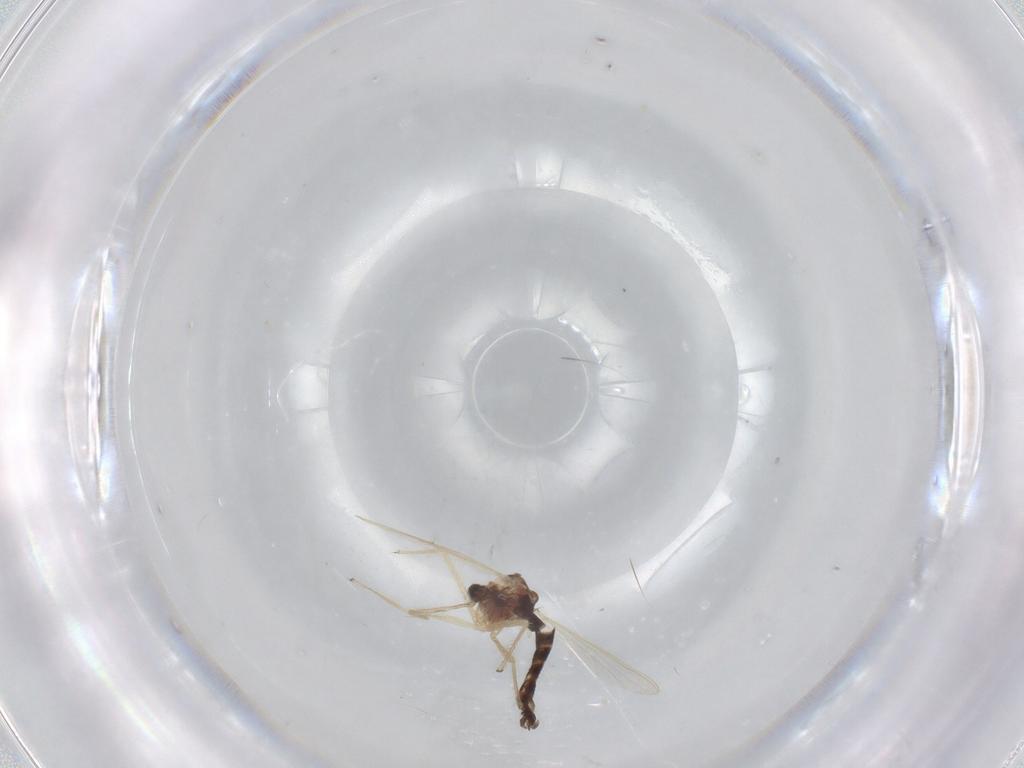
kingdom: Animalia
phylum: Arthropoda
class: Insecta
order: Diptera
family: Chironomidae
